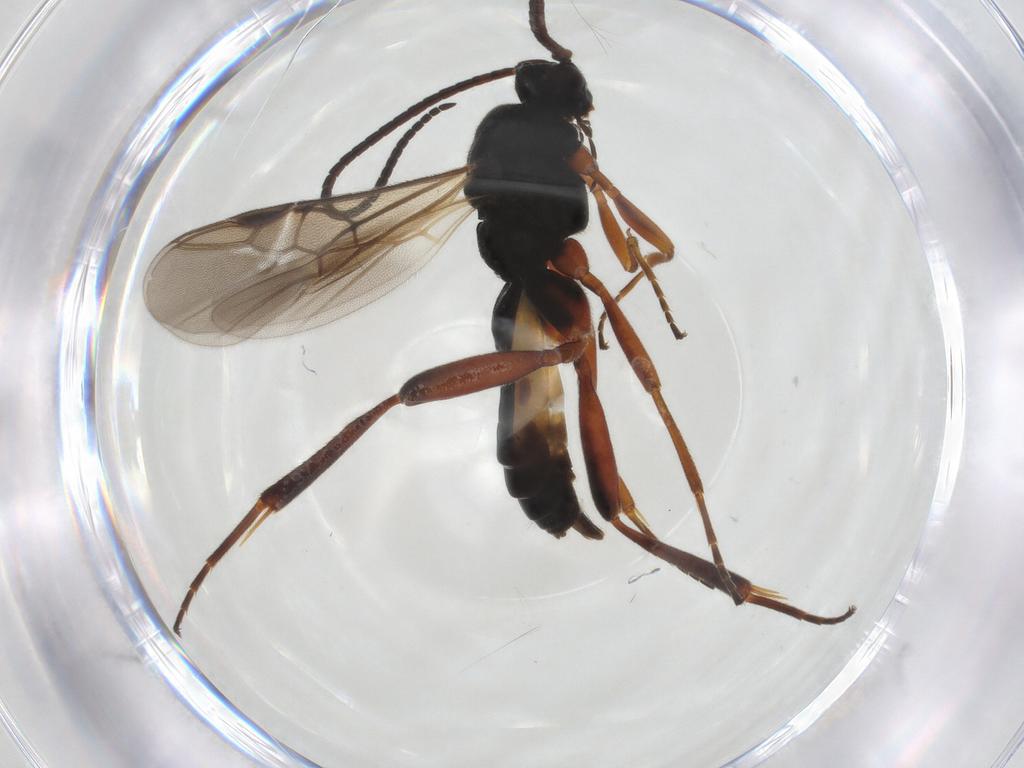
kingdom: Animalia
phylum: Arthropoda
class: Insecta
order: Hymenoptera
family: Braconidae
